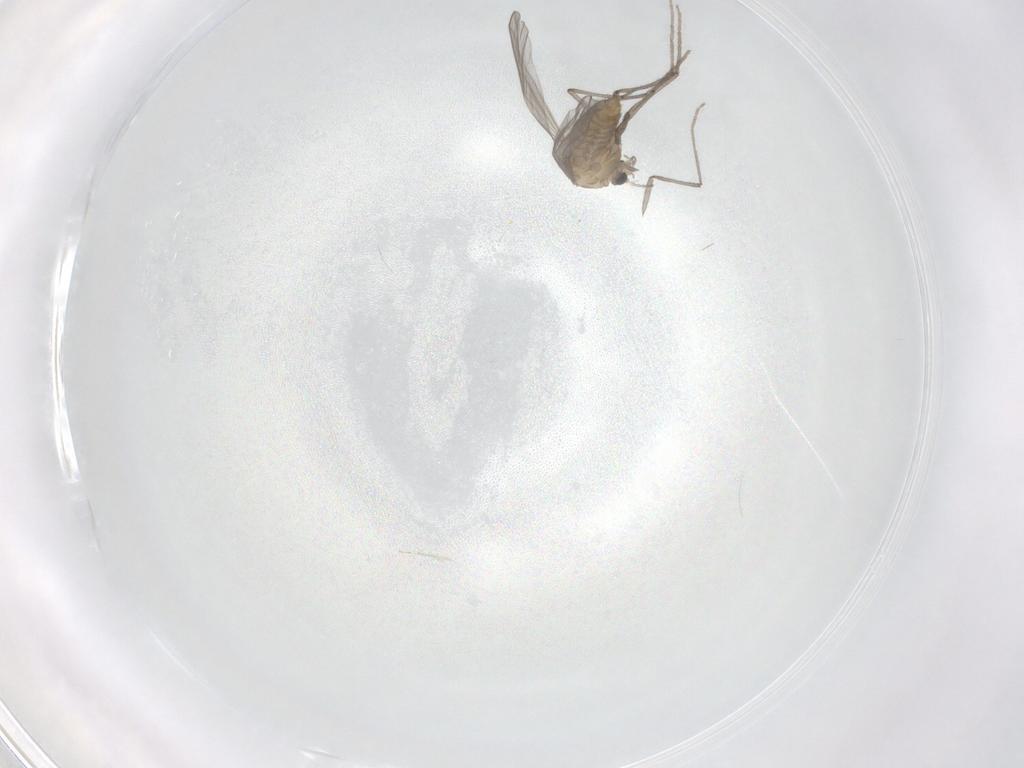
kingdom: Animalia
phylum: Arthropoda
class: Insecta
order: Diptera
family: Chironomidae
